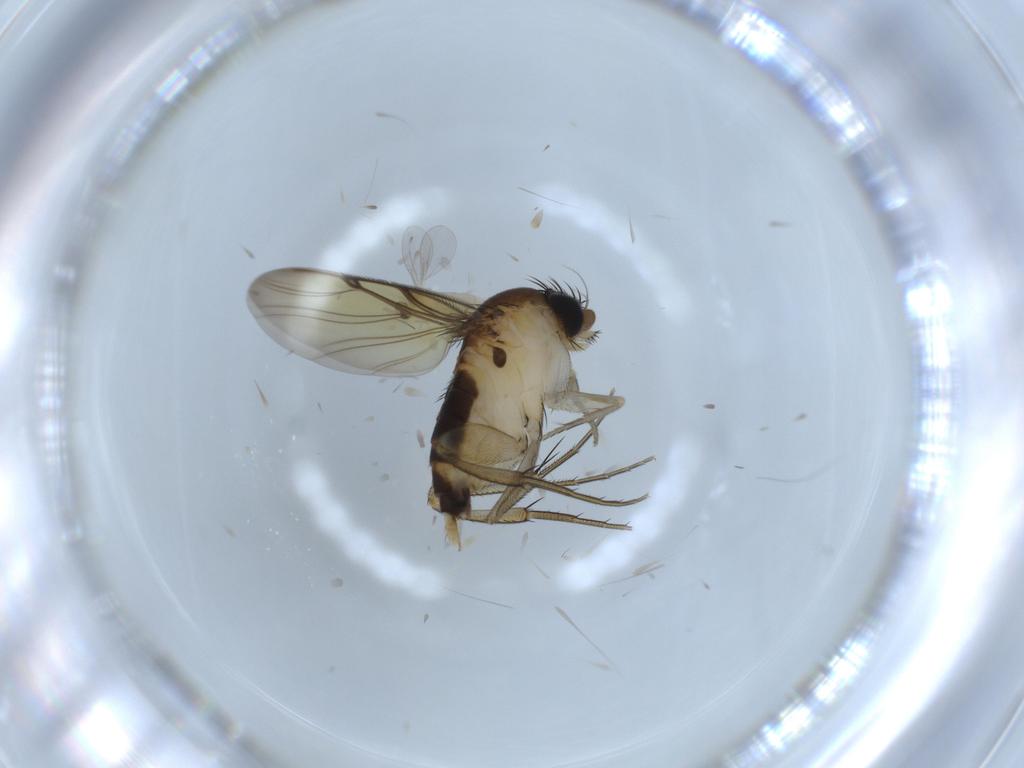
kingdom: Animalia
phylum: Arthropoda
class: Insecta
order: Diptera
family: Cecidomyiidae
